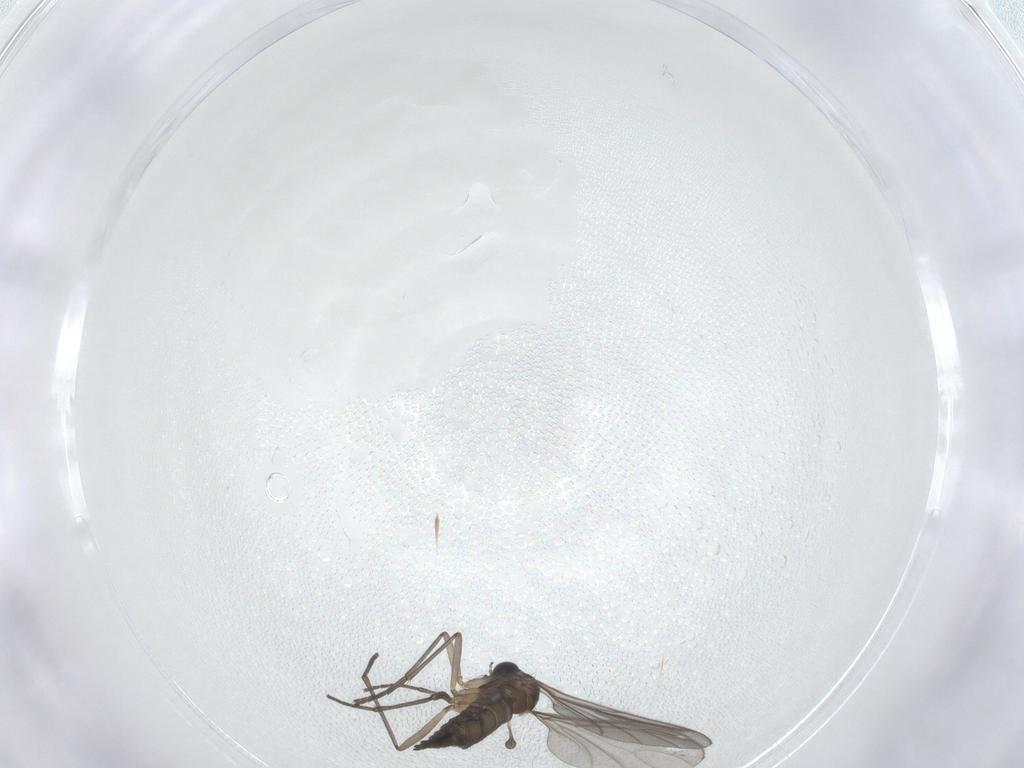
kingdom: Animalia
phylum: Arthropoda
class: Insecta
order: Diptera
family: Sciaridae
